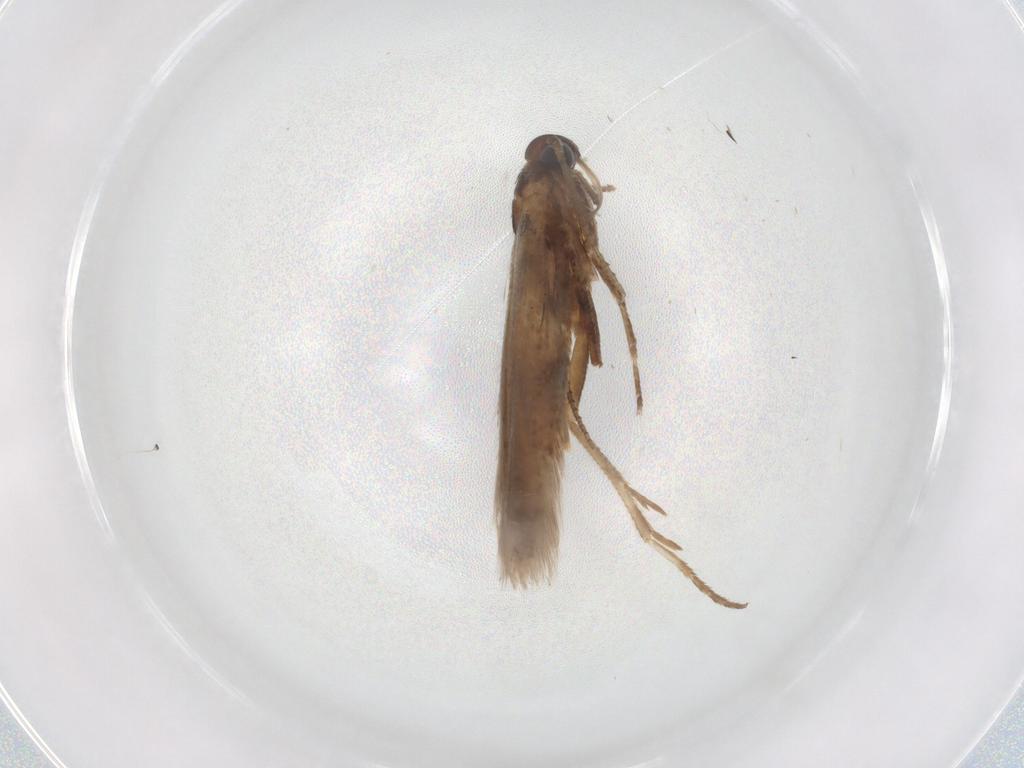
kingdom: Animalia
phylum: Arthropoda
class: Insecta
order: Lepidoptera
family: Gelechiidae
